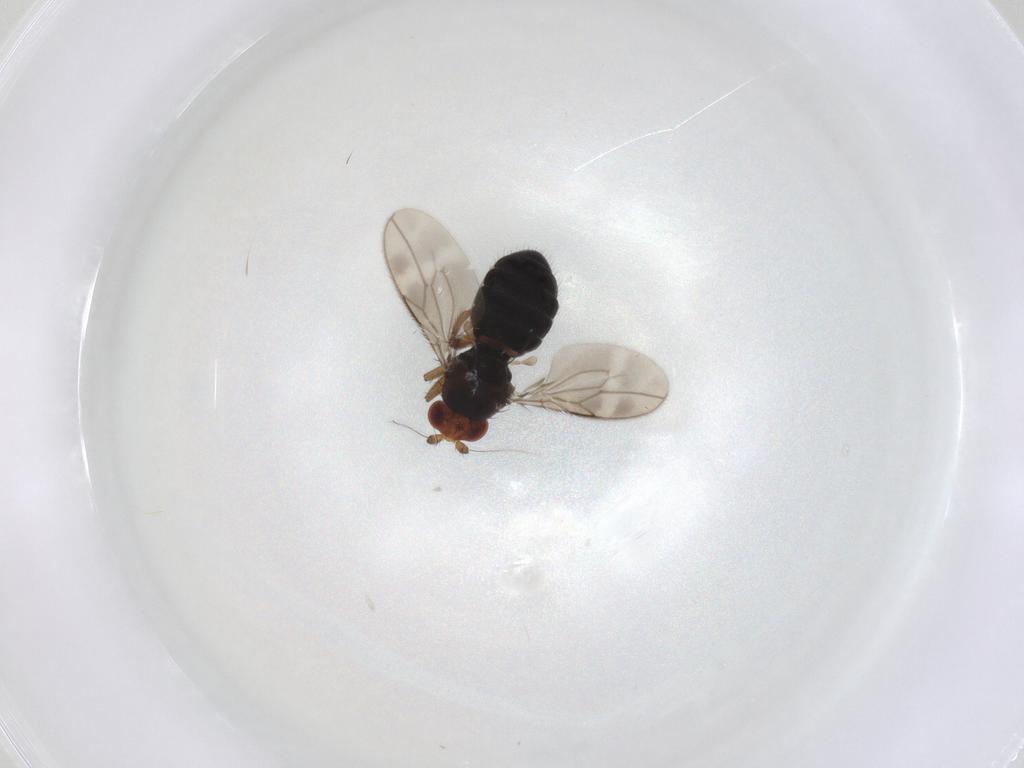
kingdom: Animalia
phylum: Arthropoda
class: Insecta
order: Diptera
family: Sphaeroceridae
